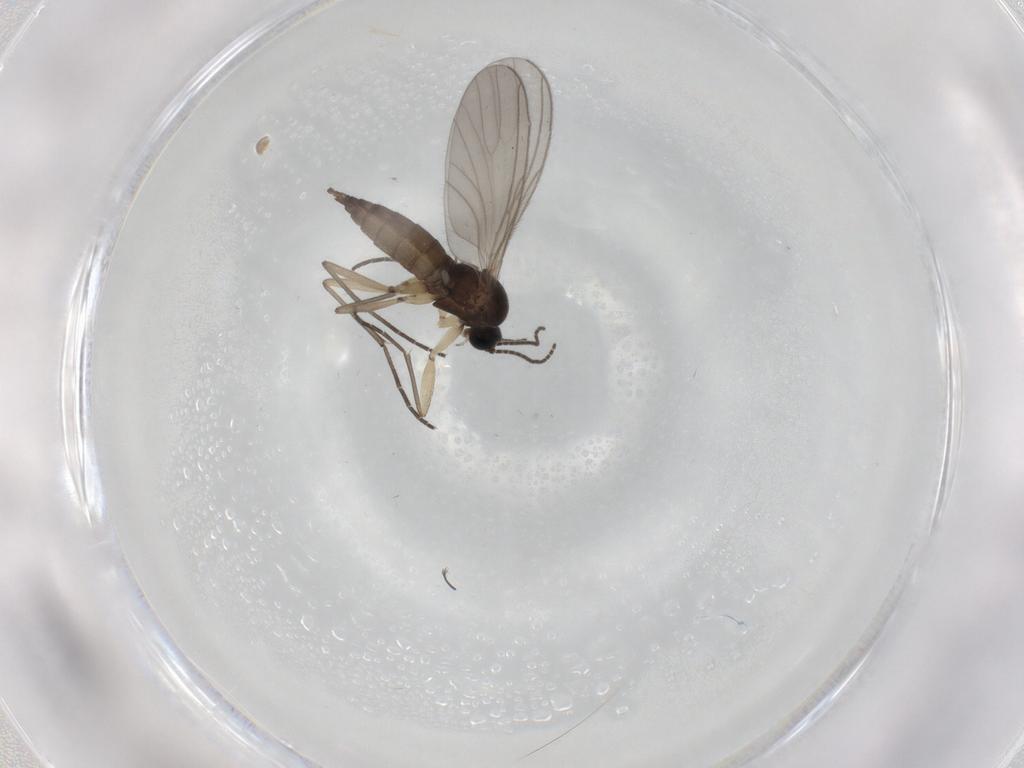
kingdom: Animalia
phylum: Arthropoda
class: Insecta
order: Diptera
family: Sciaridae
